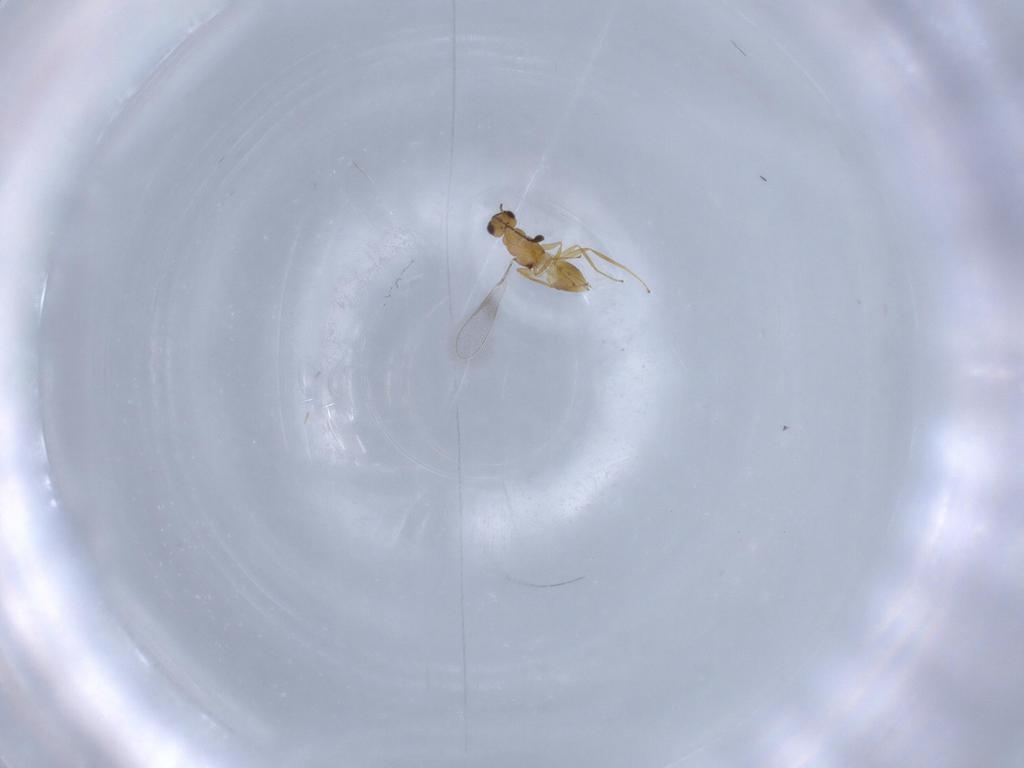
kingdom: Animalia
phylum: Arthropoda
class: Insecta
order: Hymenoptera
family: Mymaridae
